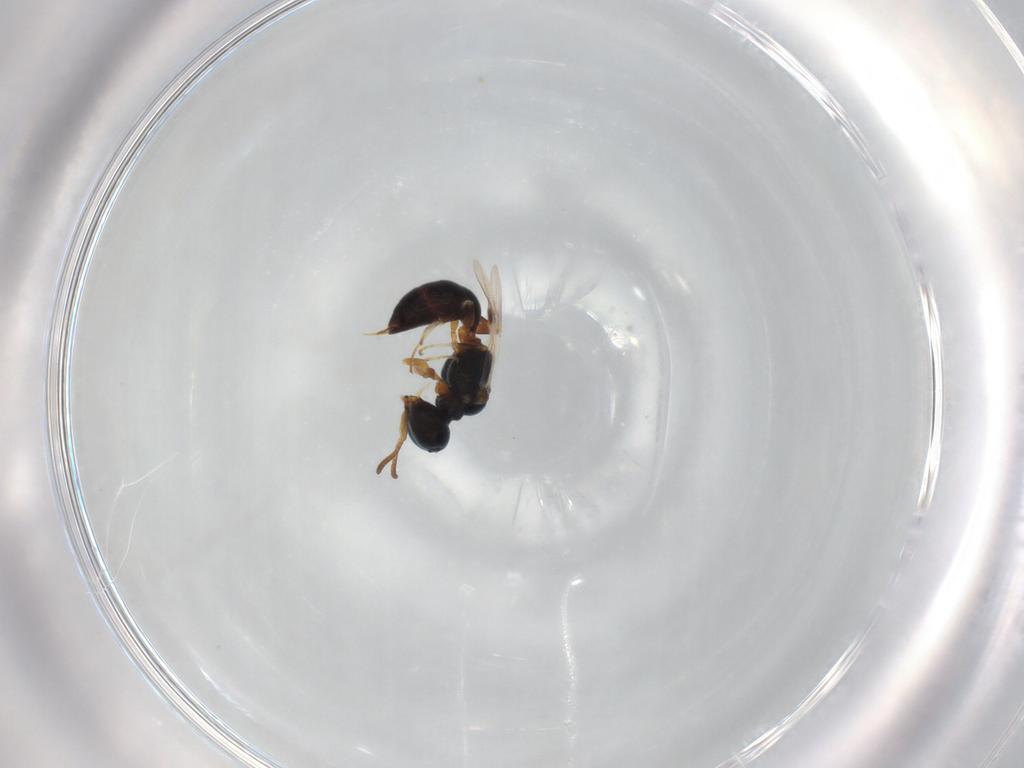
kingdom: Animalia
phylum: Arthropoda
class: Insecta
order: Hymenoptera
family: Pemphredonidae
